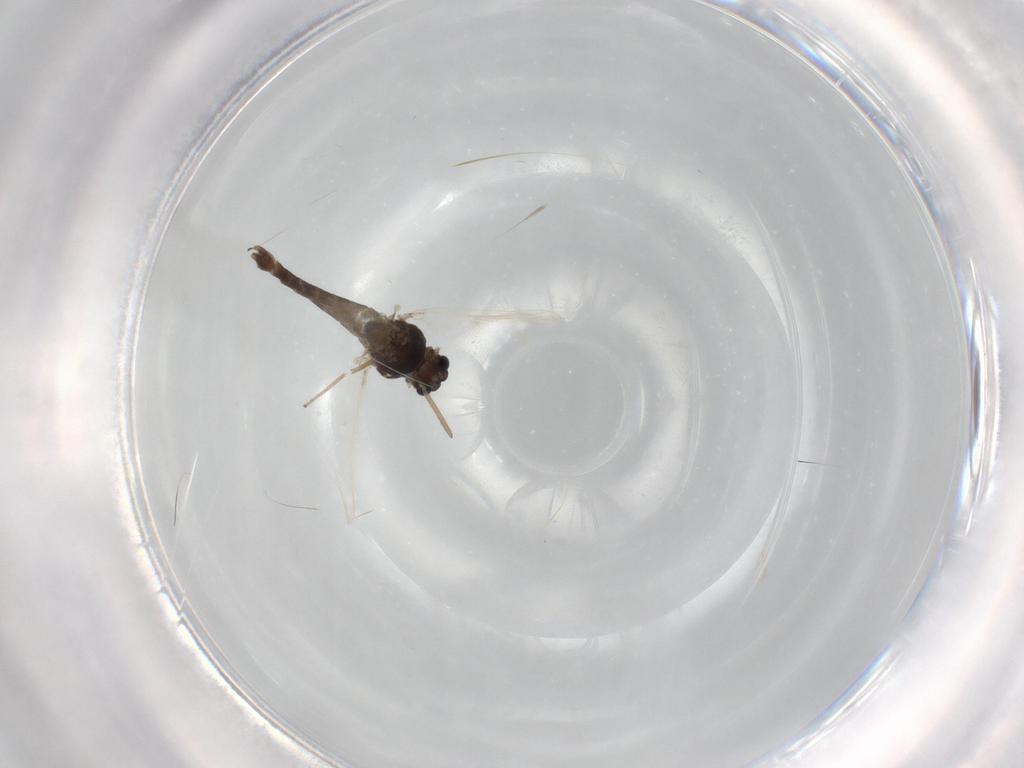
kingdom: Animalia
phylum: Arthropoda
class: Insecta
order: Diptera
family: Chironomidae
